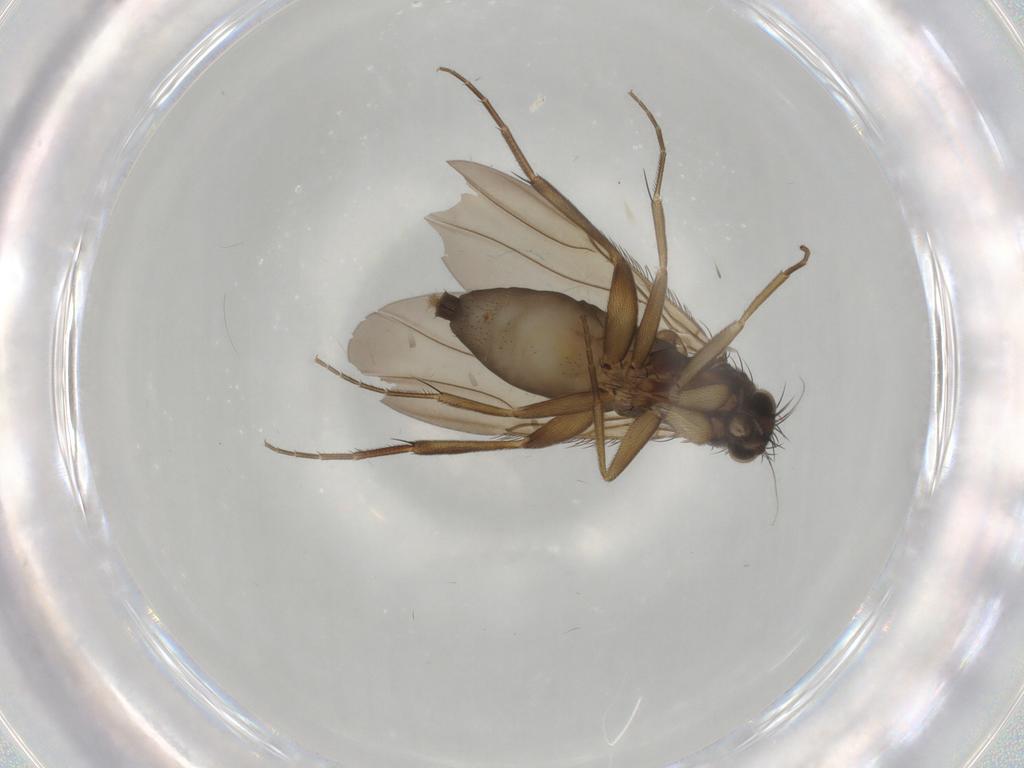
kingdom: Animalia
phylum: Arthropoda
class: Insecta
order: Diptera
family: Phoridae
